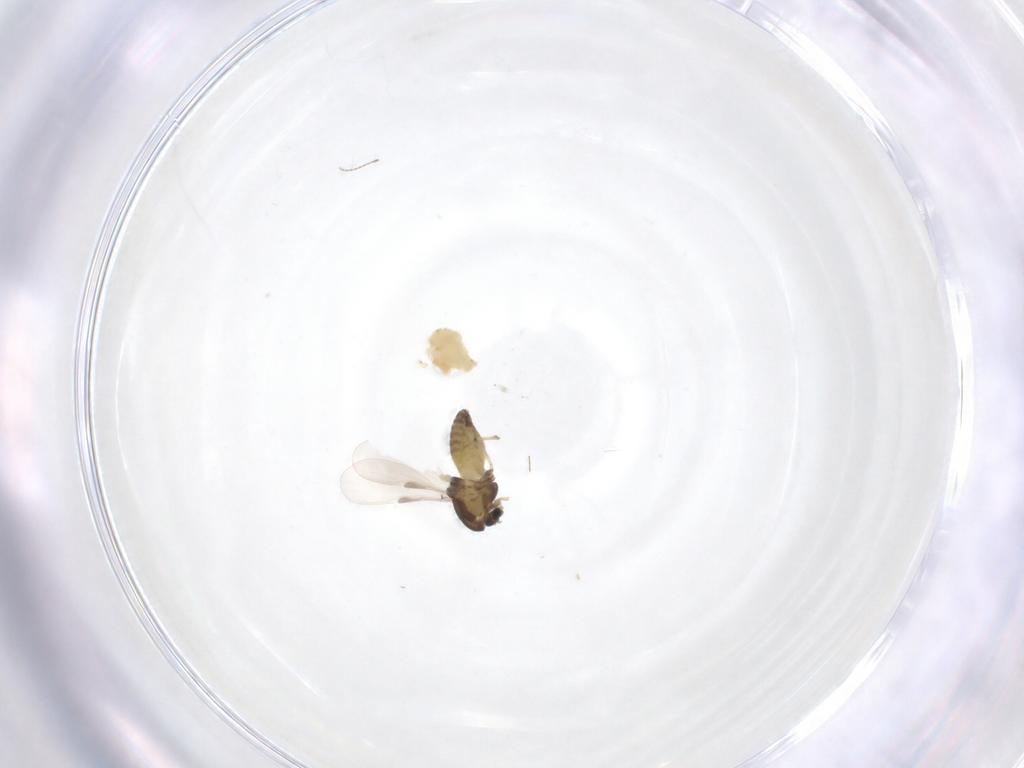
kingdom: Animalia
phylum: Arthropoda
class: Insecta
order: Diptera
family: Chironomidae
